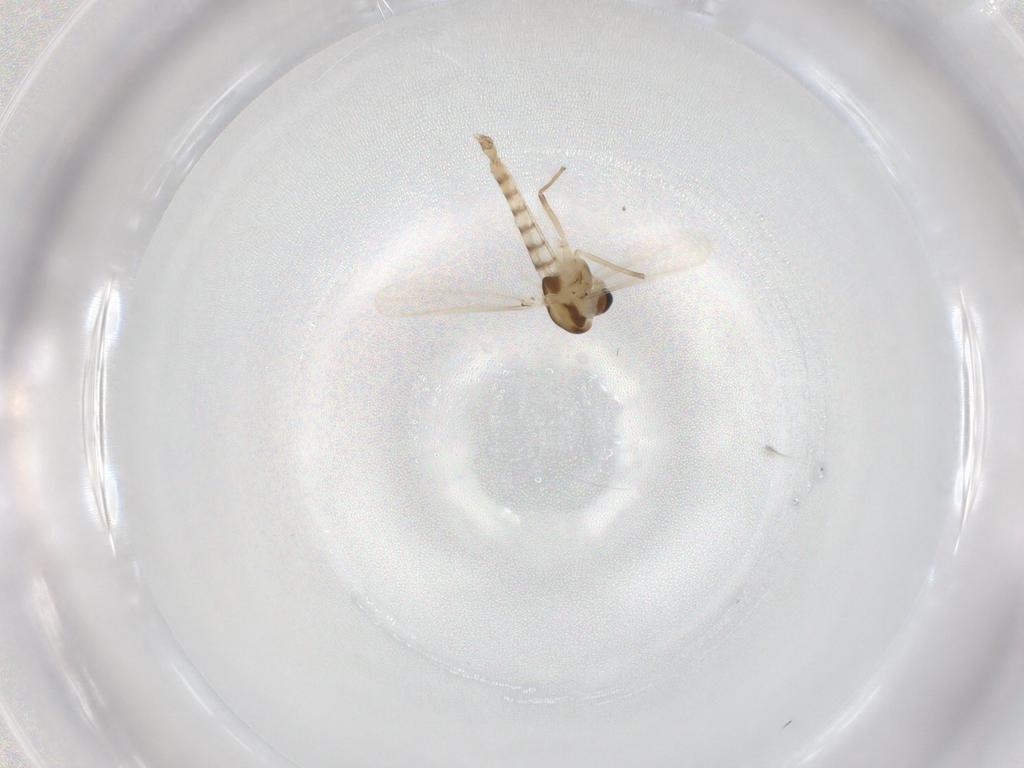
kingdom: Animalia
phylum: Arthropoda
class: Insecta
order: Diptera
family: Chironomidae
